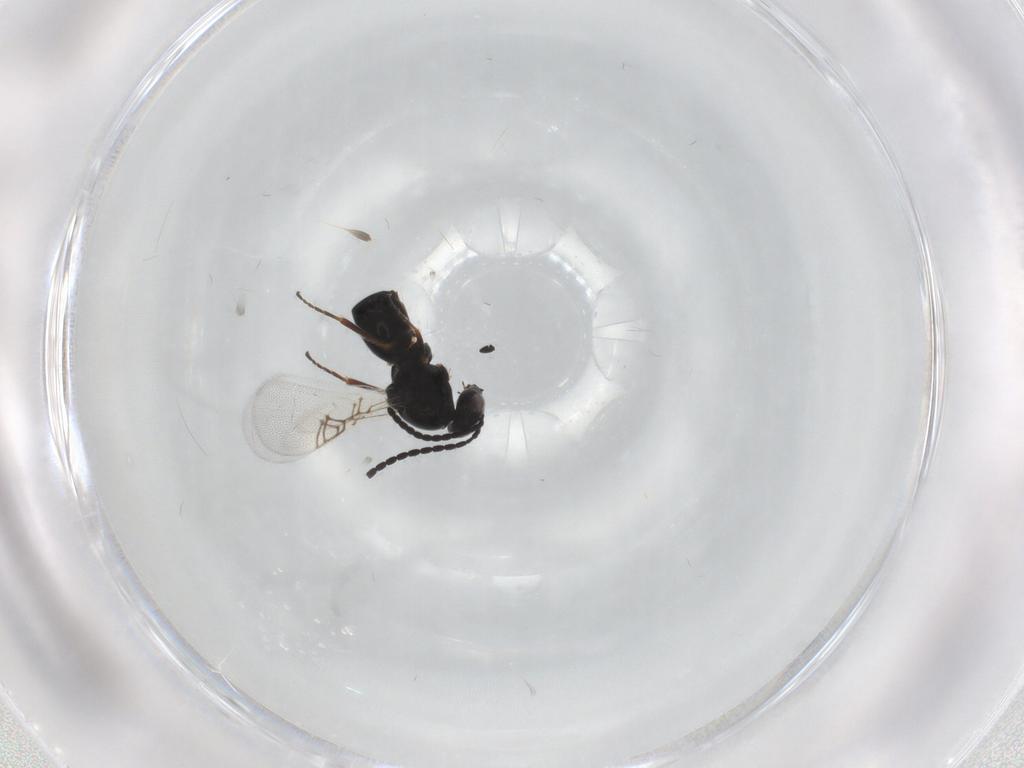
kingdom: Animalia
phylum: Arthropoda
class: Insecta
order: Hymenoptera
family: Figitidae
